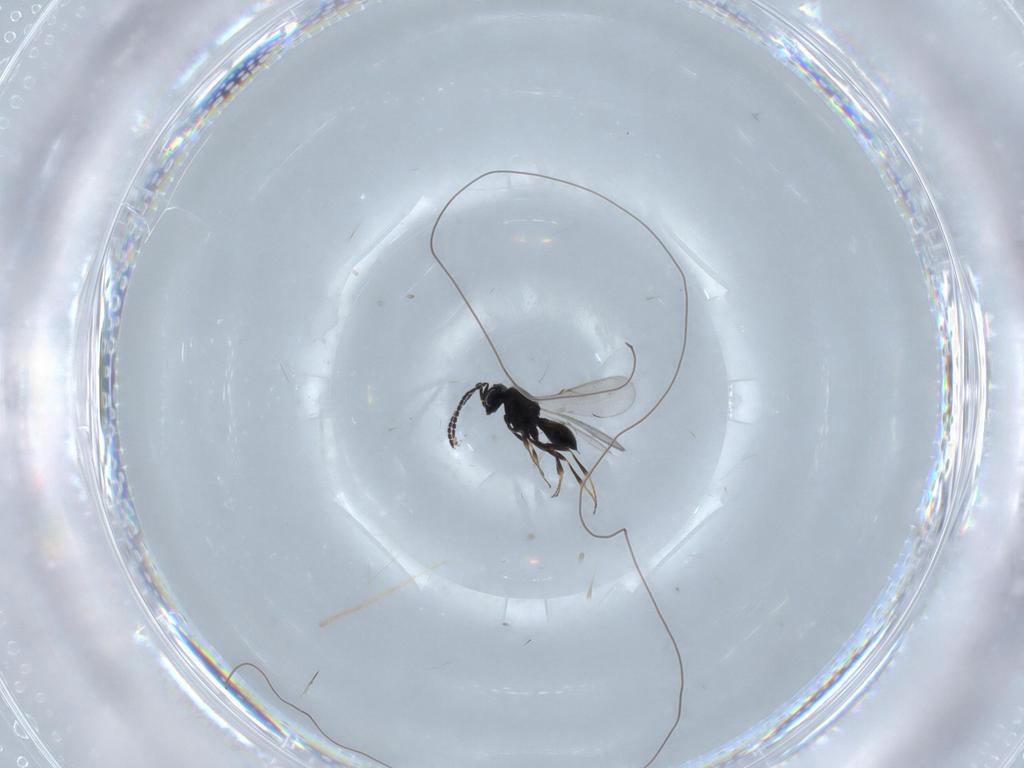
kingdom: Animalia
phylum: Arthropoda
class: Insecta
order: Hymenoptera
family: Scelionidae
